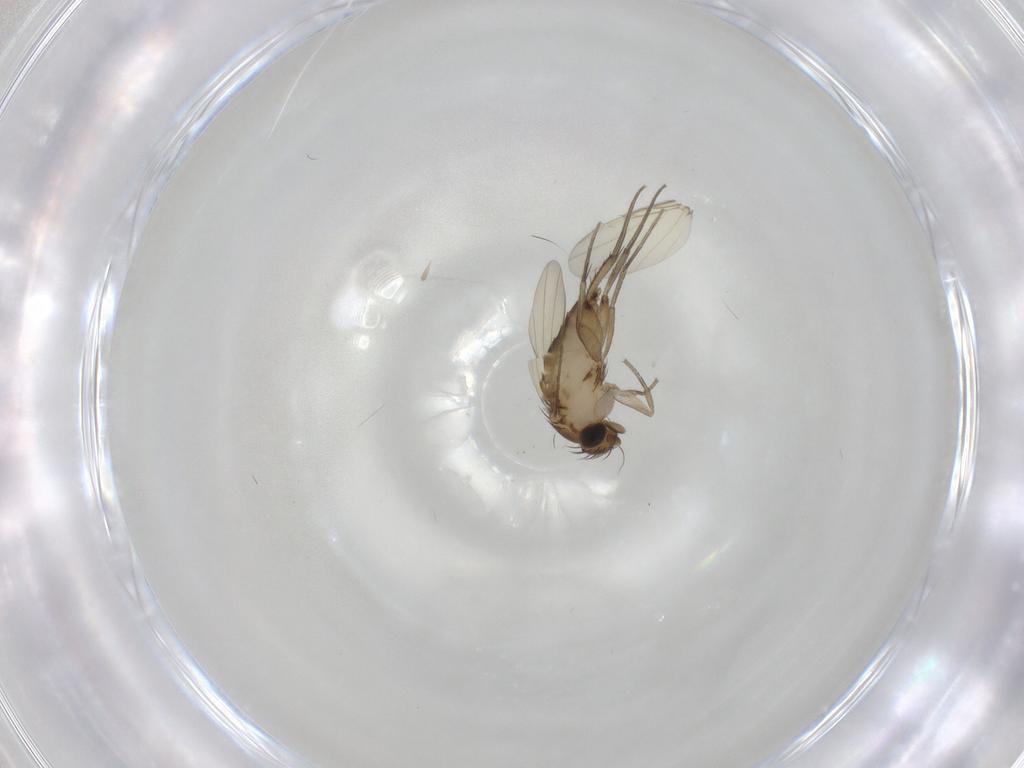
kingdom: Animalia
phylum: Arthropoda
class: Insecta
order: Diptera
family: Phoridae
